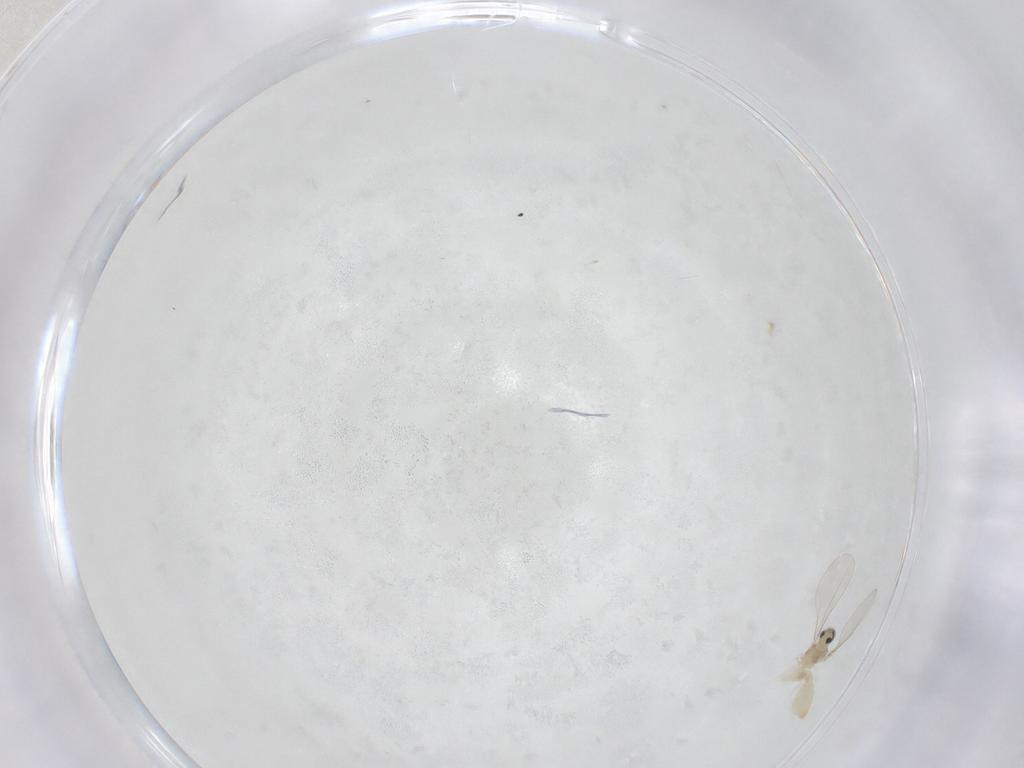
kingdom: Animalia
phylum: Arthropoda
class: Insecta
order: Diptera
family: Cecidomyiidae
